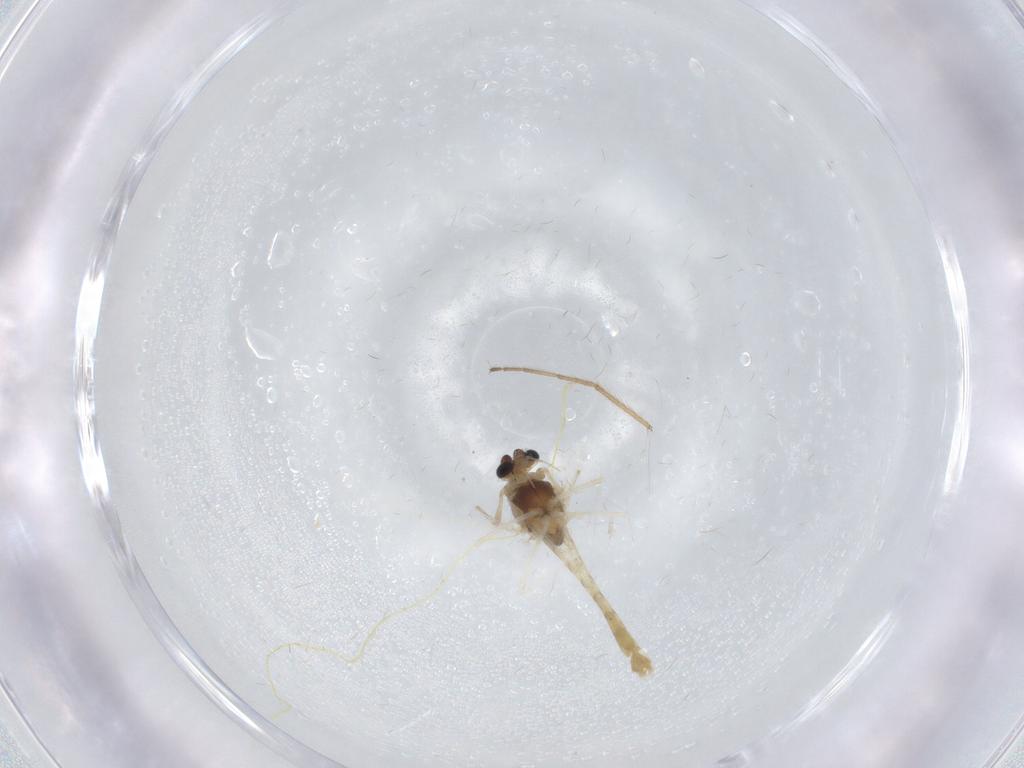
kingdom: Animalia
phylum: Arthropoda
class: Insecta
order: Diptera
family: Chironomidae
